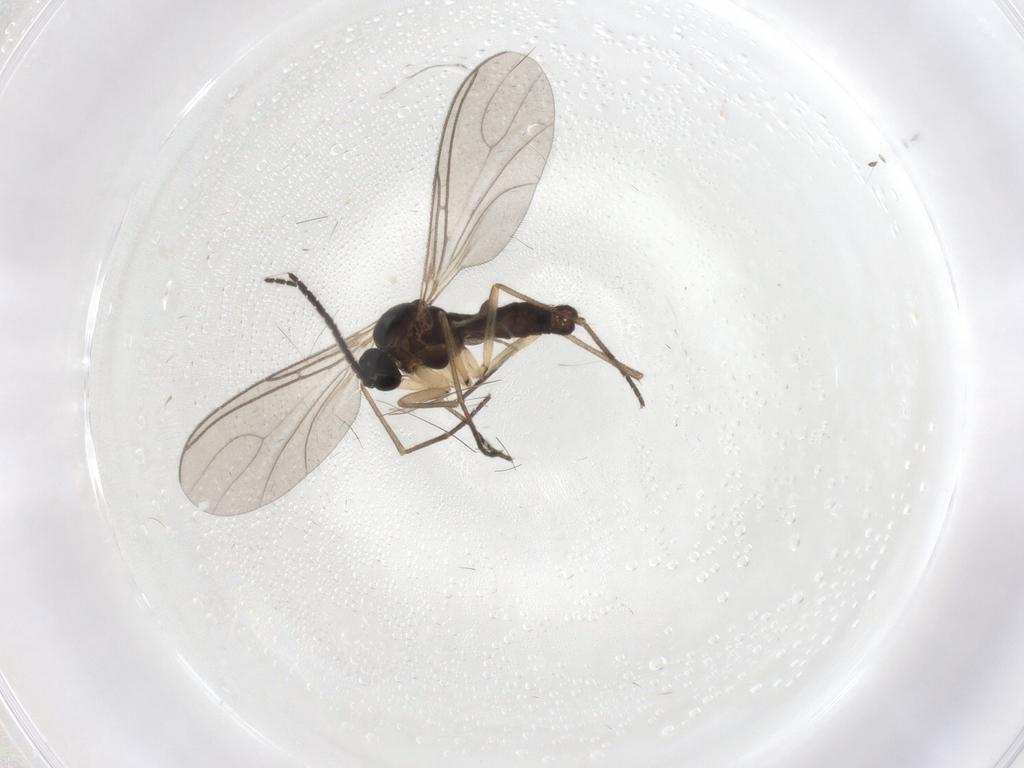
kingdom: Animalia
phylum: Arthropoda
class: Insecta
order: Diptera
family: Sciaridae
